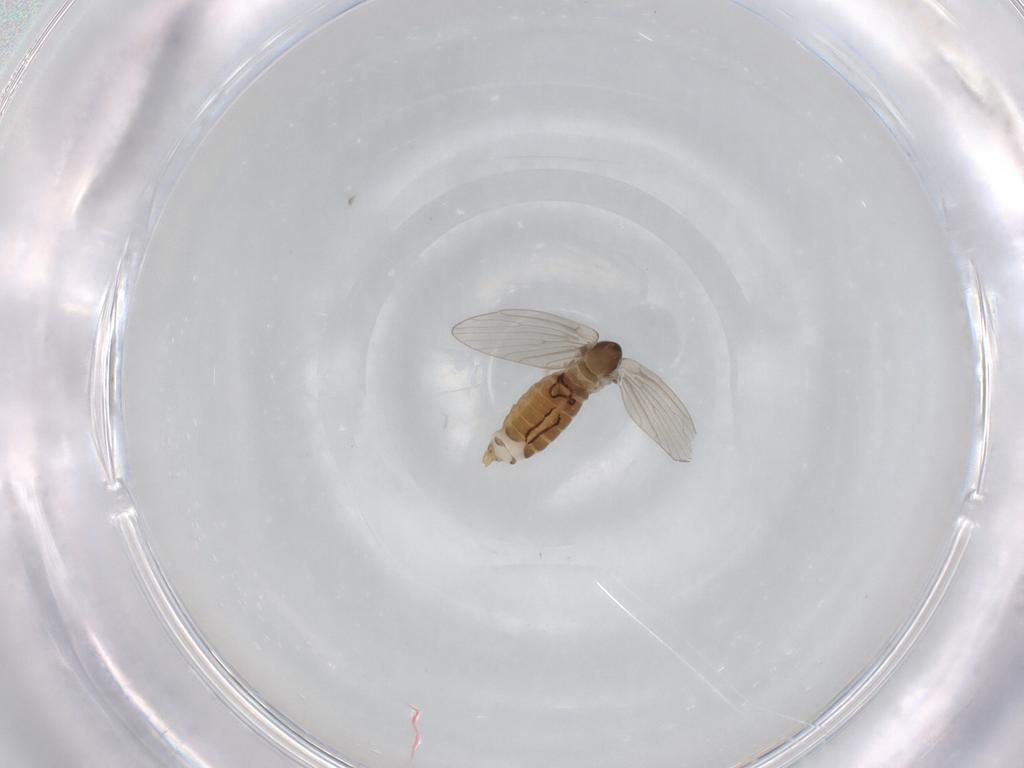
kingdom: Animalia
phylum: Arthropoda
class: Insecta
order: Diptera
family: Psychodidae
